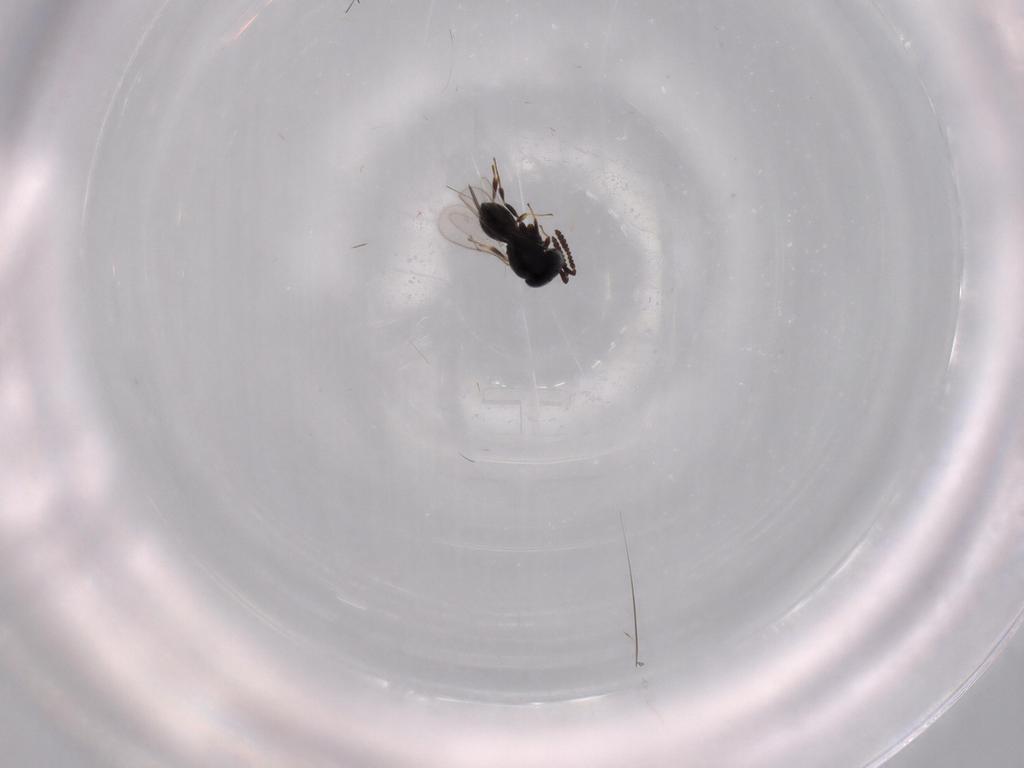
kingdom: Animalia
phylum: Arthropoda
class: Insecta
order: Hymenoptera
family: Scelionidae
